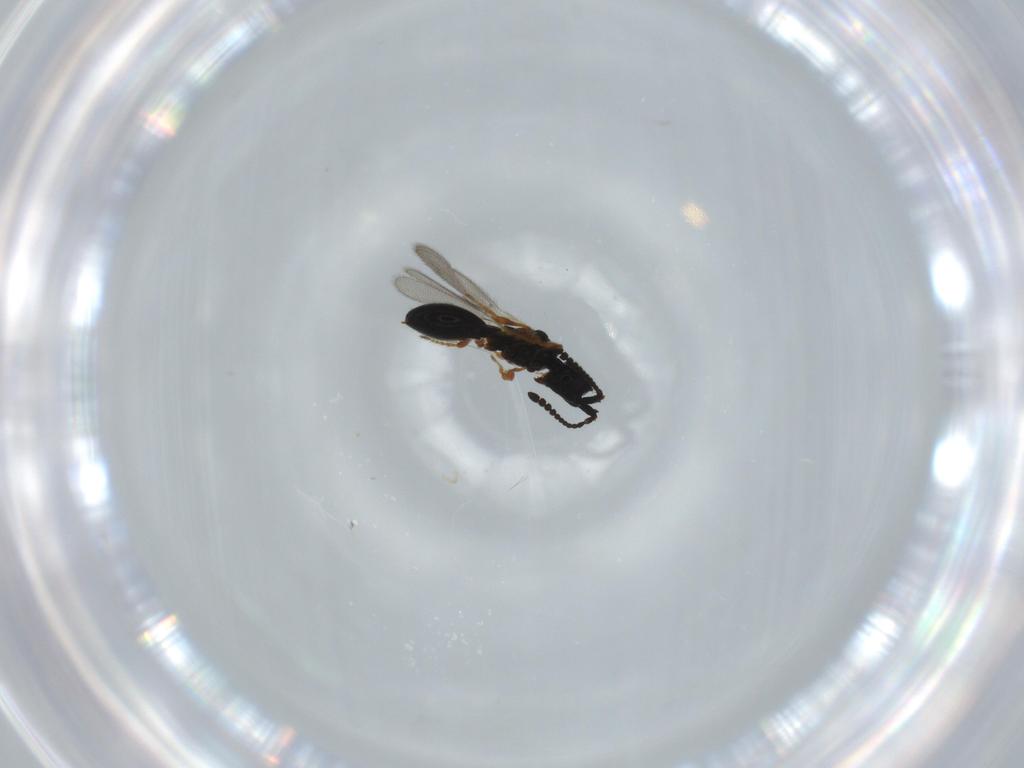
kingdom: Animalia
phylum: Arthropoda
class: Insecta
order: Hymenoptera
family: Diapriidae
